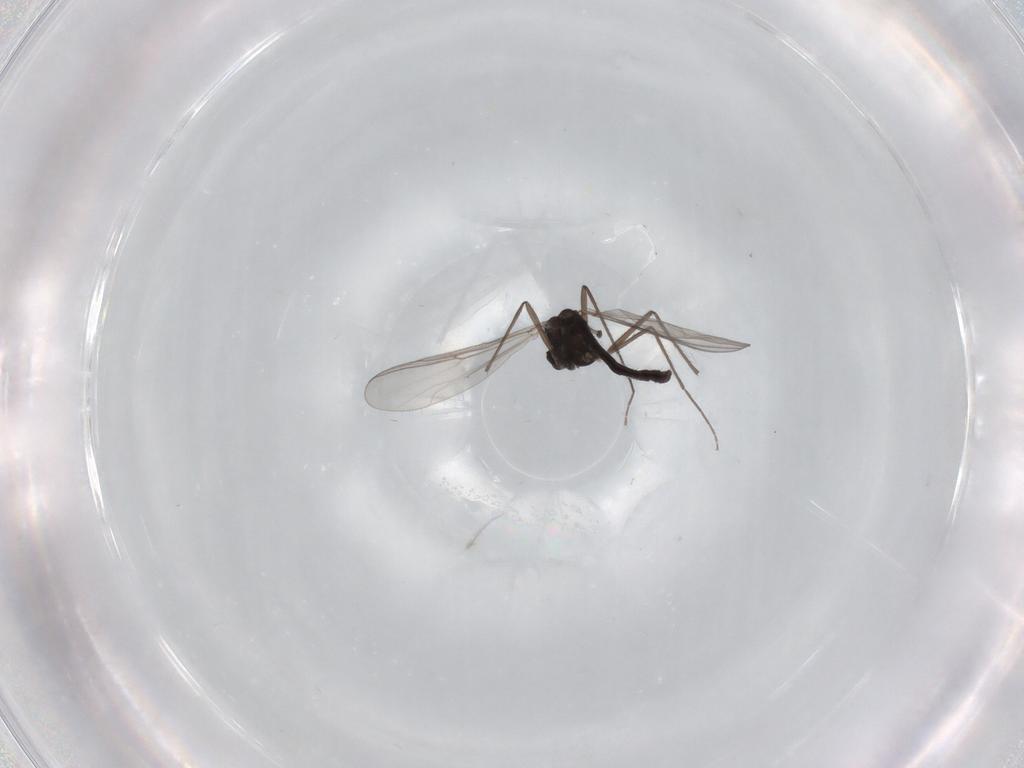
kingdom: Animalia
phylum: Arthropoda
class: Insecta
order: Diptera
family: Chironomidae
